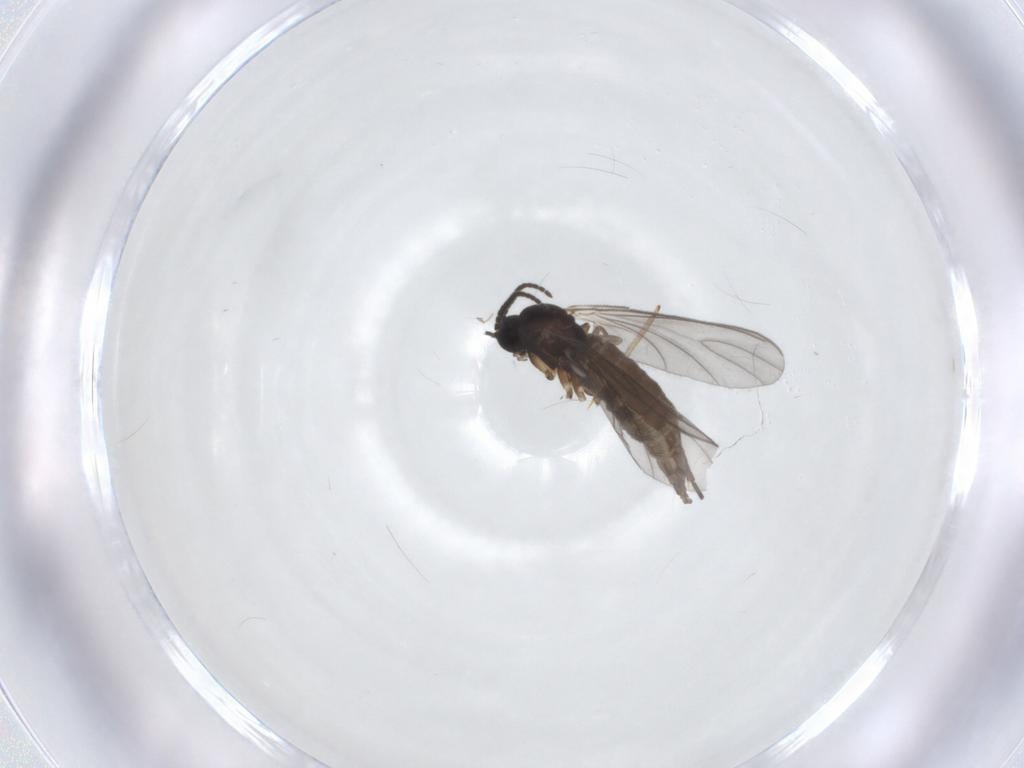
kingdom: Animalia
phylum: Arthropoda
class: Insecta
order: Diptera
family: Sciaridae
